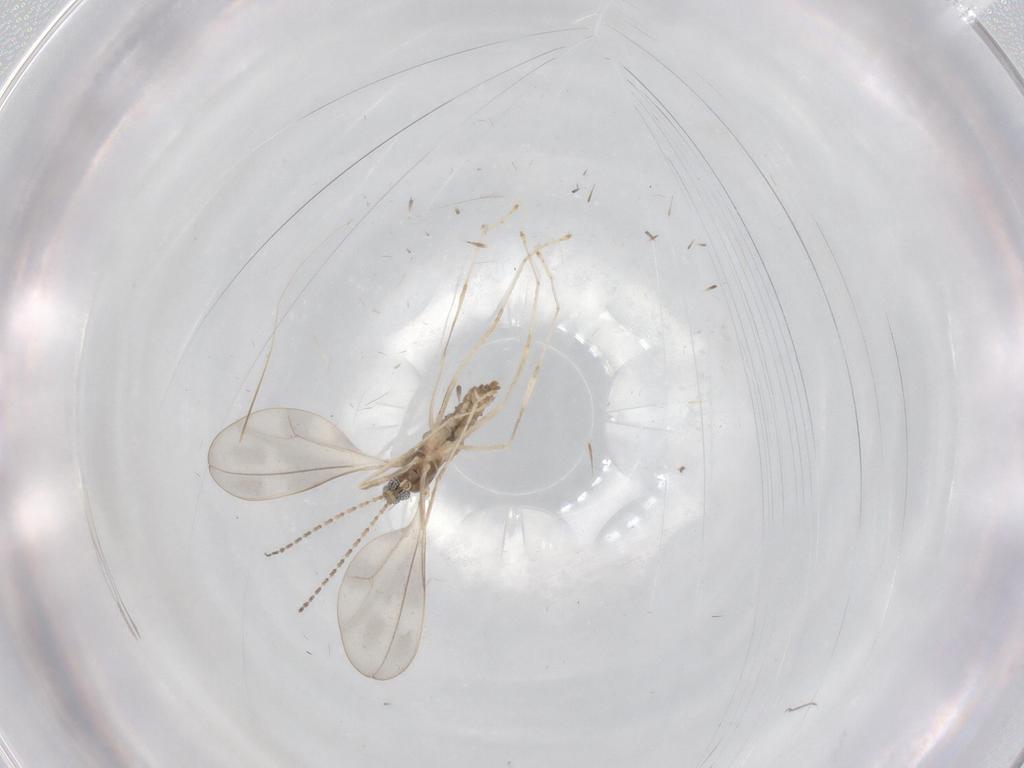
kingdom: Animalia
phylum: Arthropoda
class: Insecta
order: Diptera
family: Cecidomyiidae
